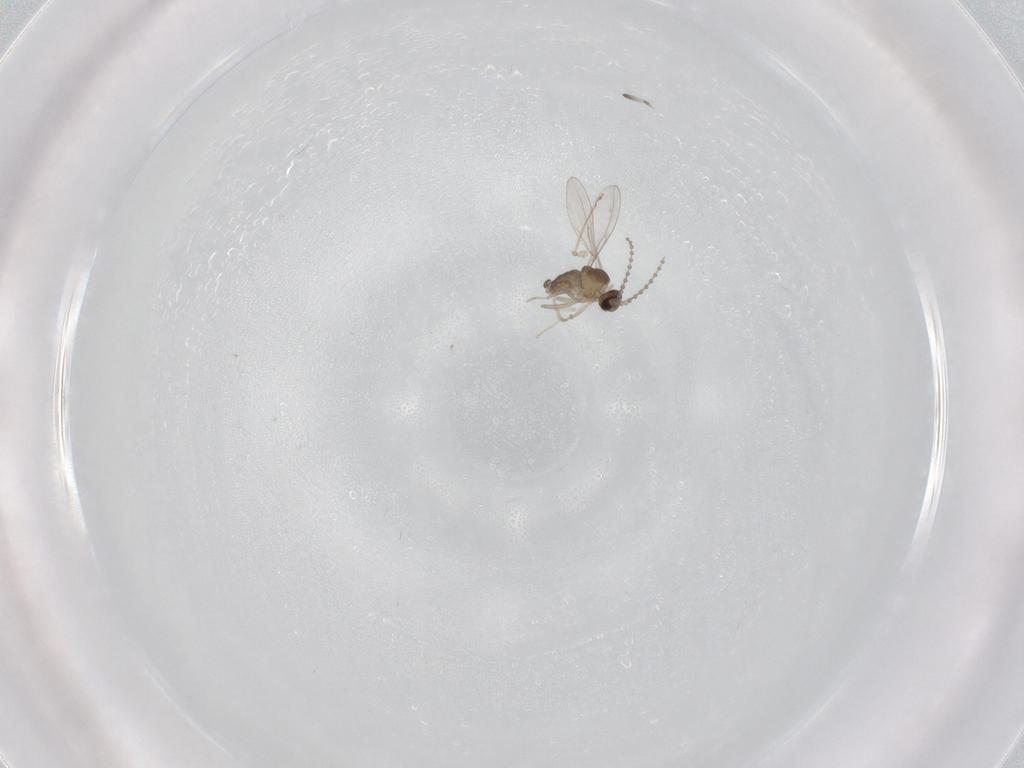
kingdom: Animalia
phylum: Arthropoda
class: Insecta
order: Diptera
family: Cecidomyiidae
